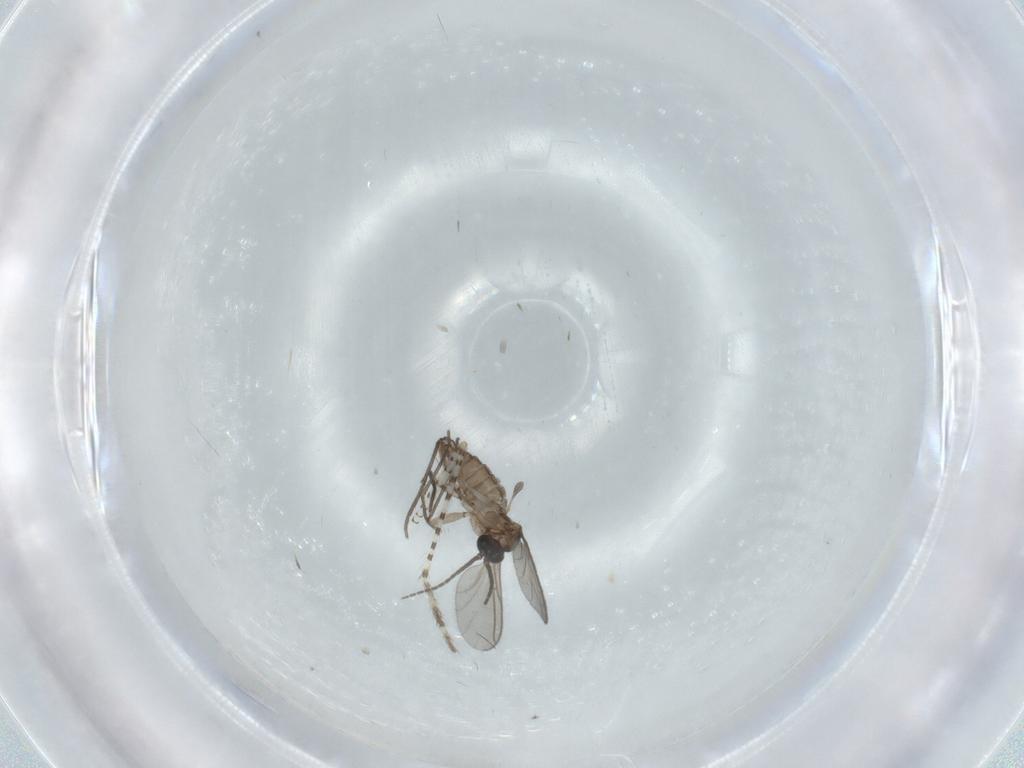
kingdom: Animalia
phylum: Arthropoda
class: Insecta
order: Diptera
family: Sciaridae
